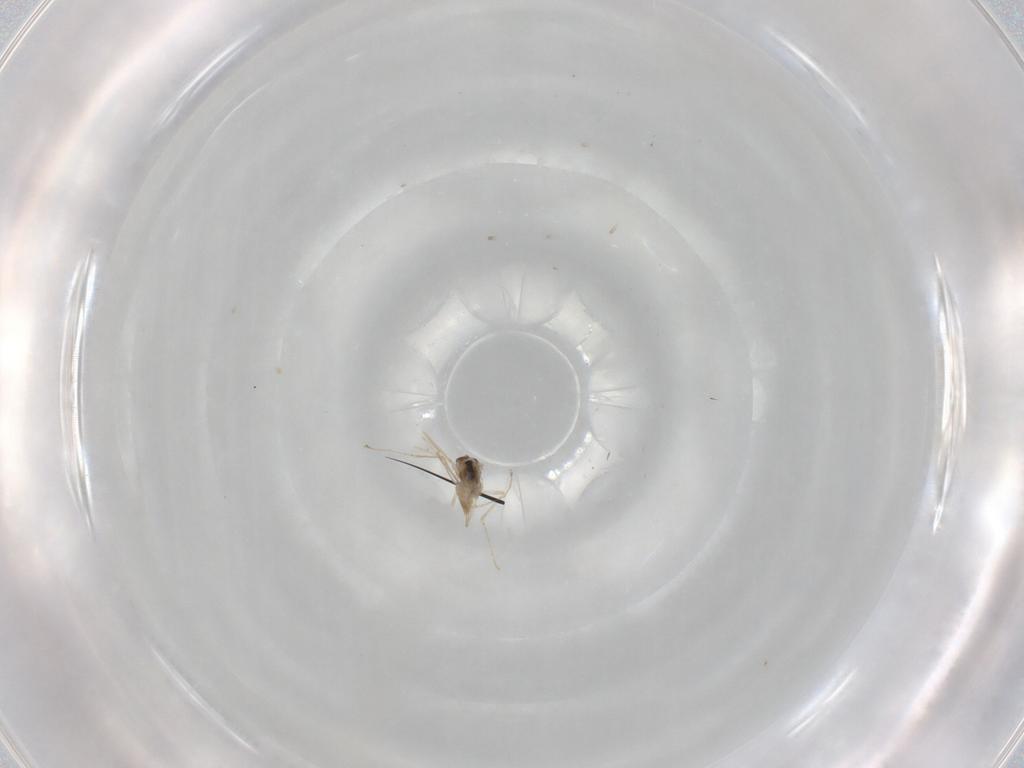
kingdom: Animalia
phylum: Arthropoda
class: Insecta
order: Diptera
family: Cecidomyiidae
